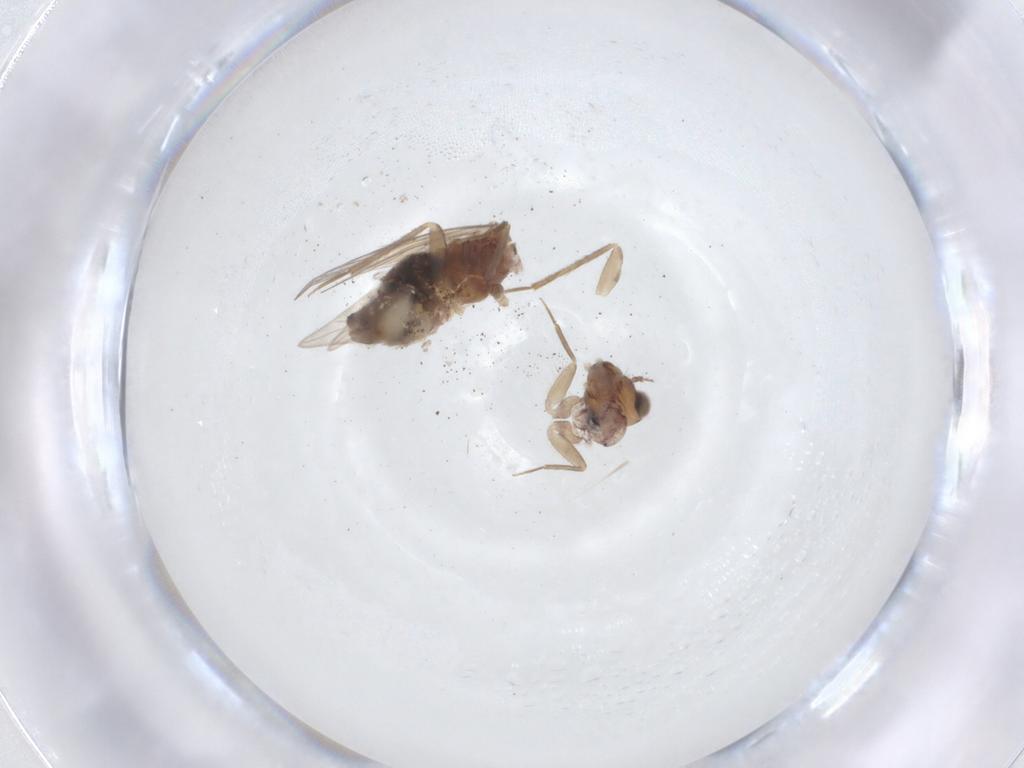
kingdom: Animalia
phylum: Arthropoda
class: Insecta
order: Psocodea
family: Lepidopsocidae
